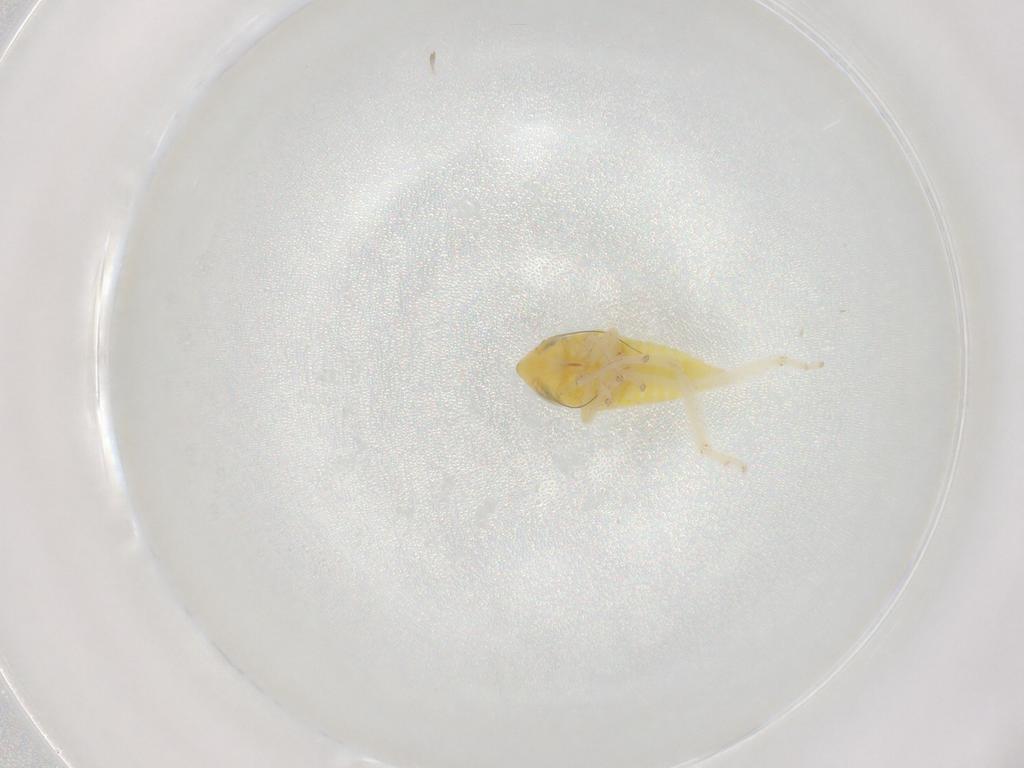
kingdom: Animalia
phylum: Arthropoda
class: Insecta
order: Hemiptera
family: Cicadellidae
